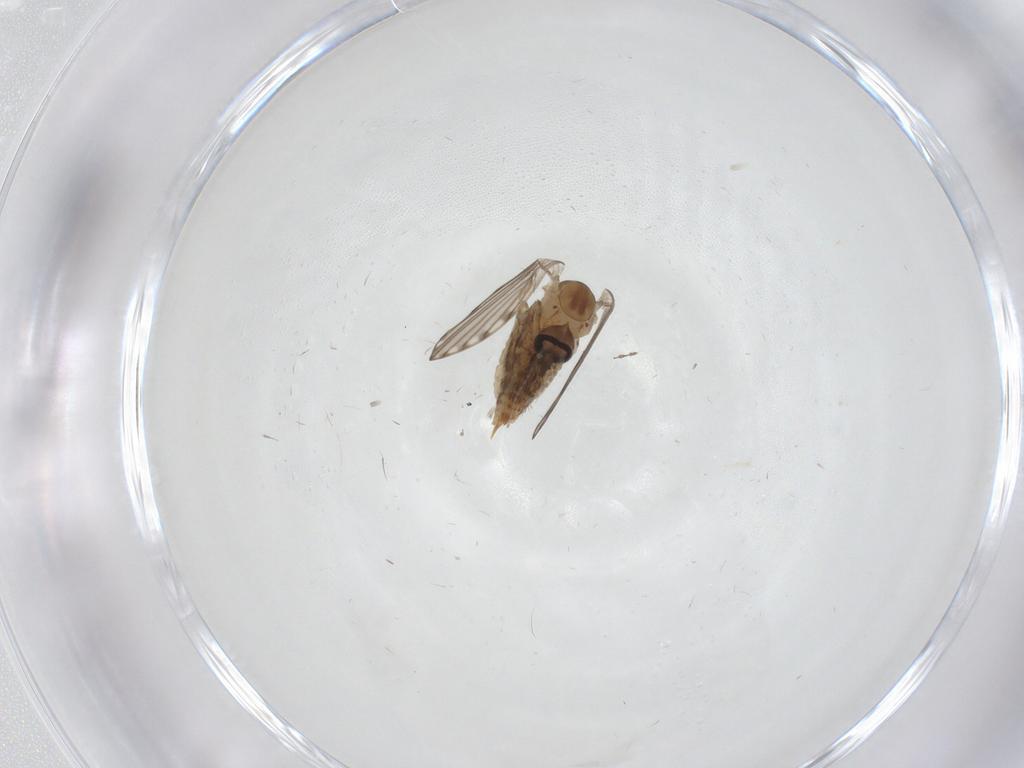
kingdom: Animalia
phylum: Arthropoda
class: Insecta
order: Diptera
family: Psychodidae
